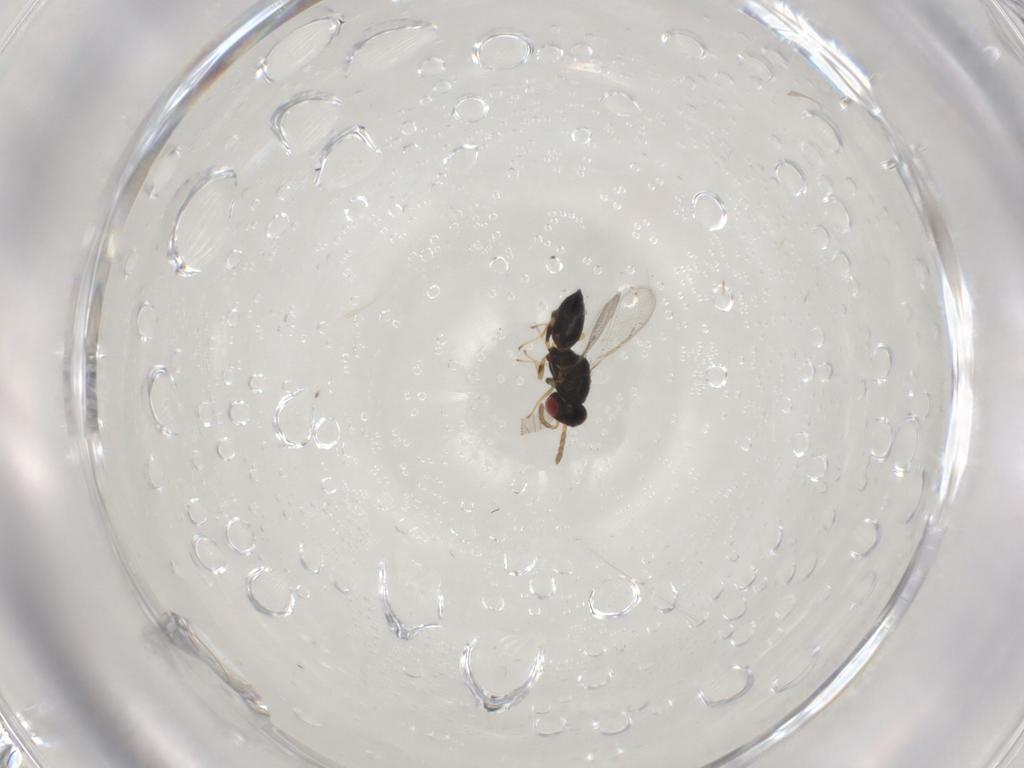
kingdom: Animalia
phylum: Arthropoda
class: Insecta
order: Hymenoptera
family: Eulophidae
